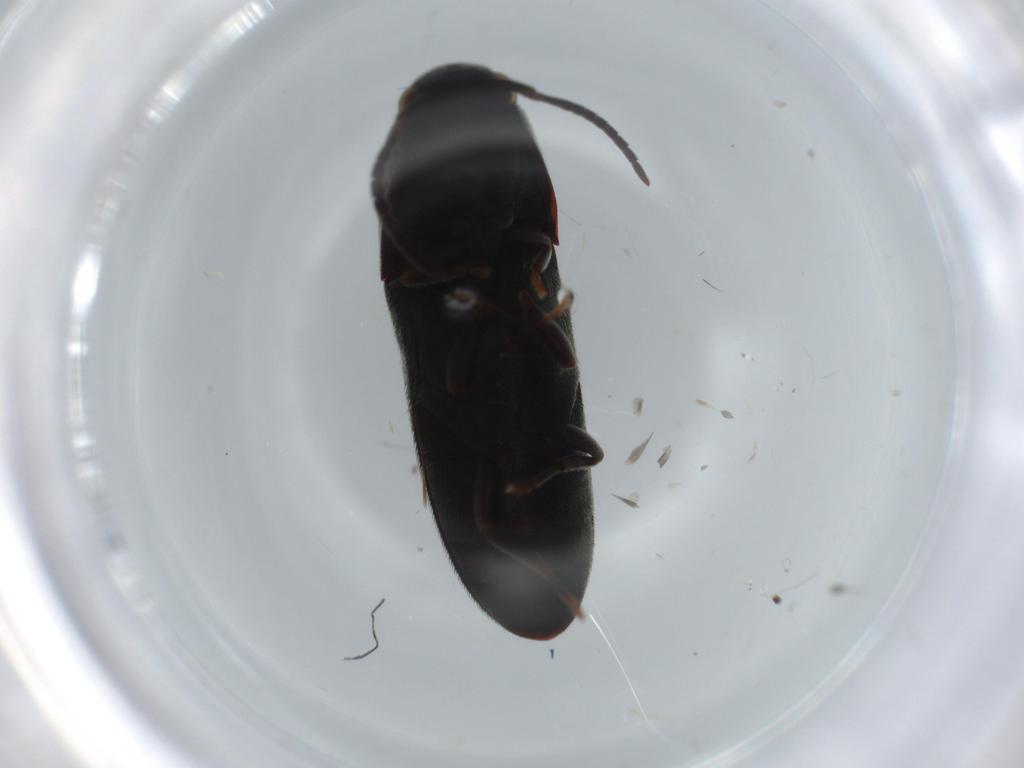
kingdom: Animalia
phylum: Arthropoda
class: Insecta
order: Coleoptera
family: Eucnemidae
